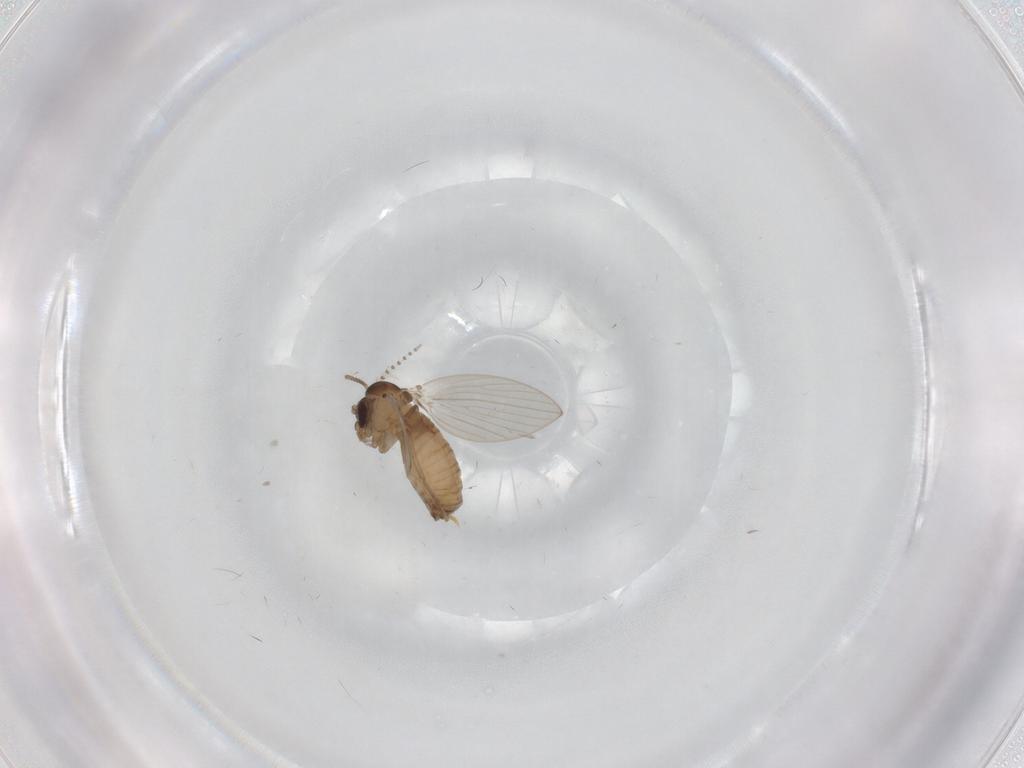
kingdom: Animalia
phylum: Arthropoda
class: Insecta
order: Diptera
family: Psychodidae
